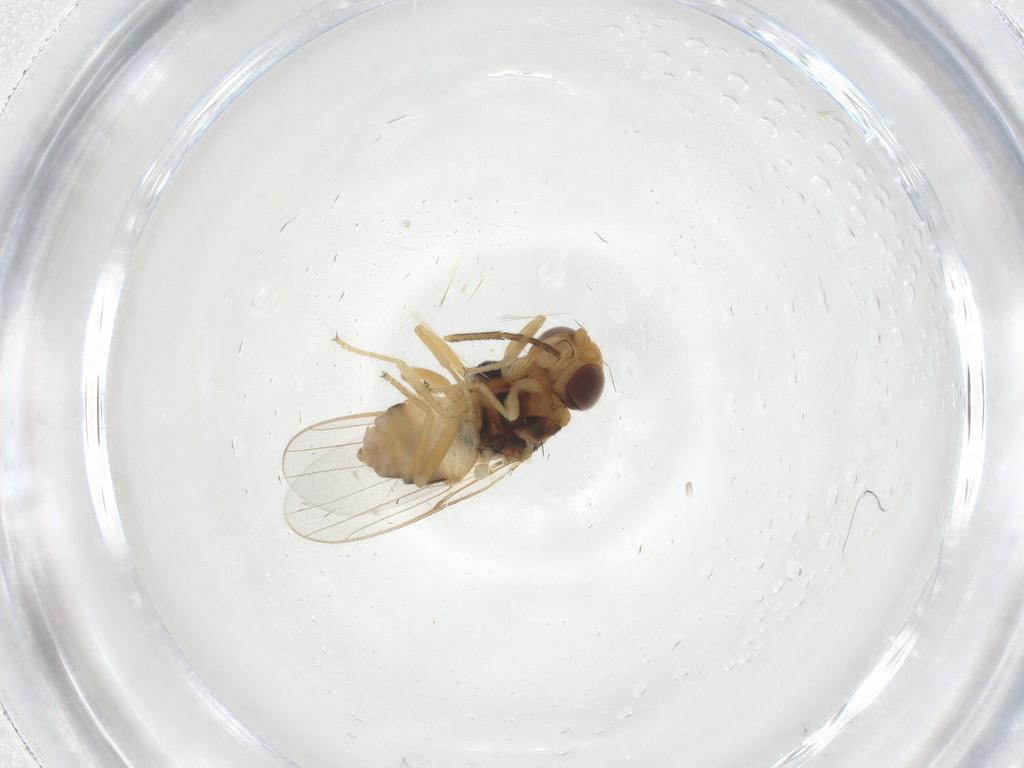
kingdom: Animalia
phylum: Arthropoda
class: Insecta
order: Diptera
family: Chloropidae
